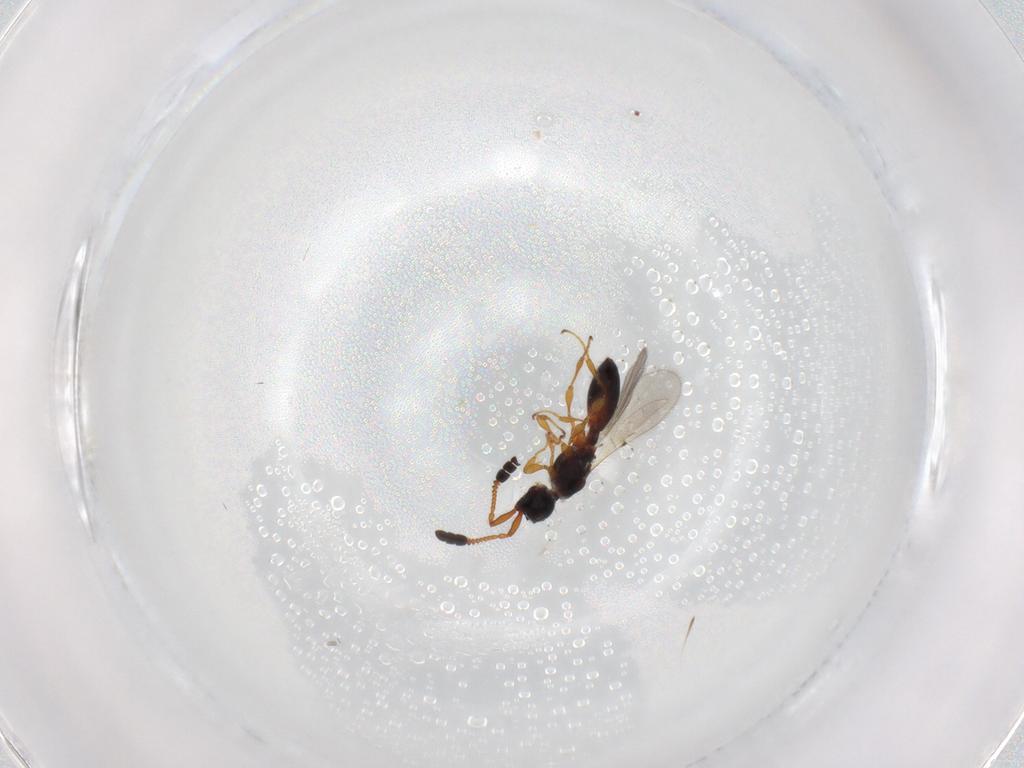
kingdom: Animalia
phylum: Arthropoda
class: Insecta
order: Hymenoptera
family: Diapriidae
